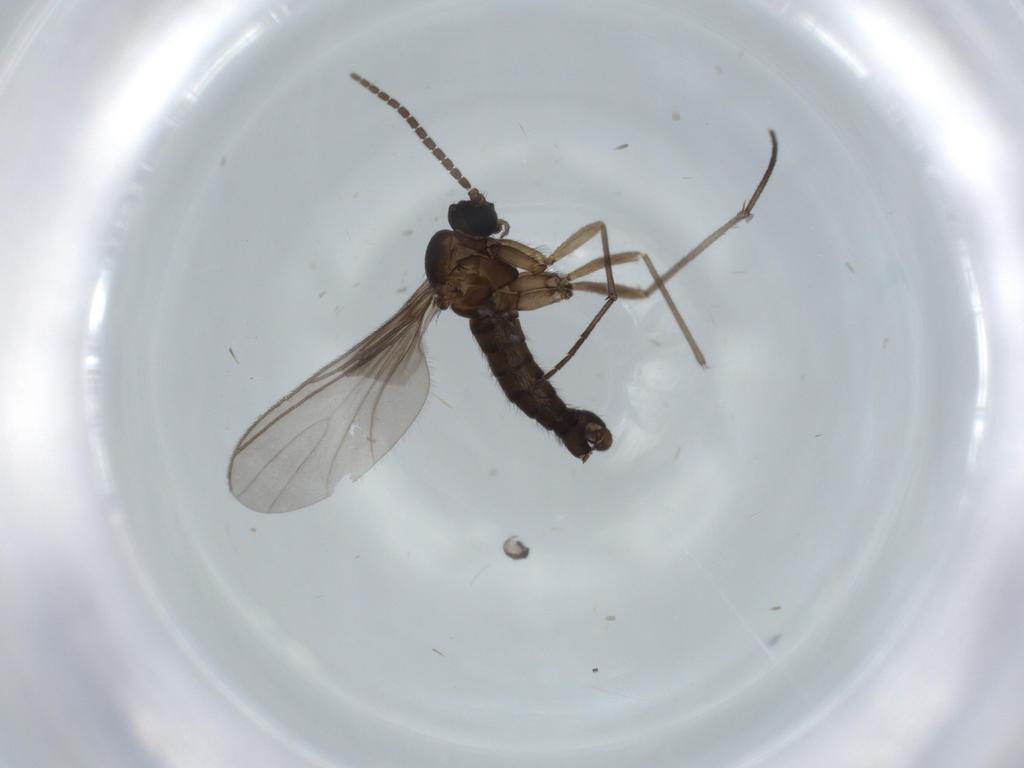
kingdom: Animalia
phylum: Arthropoda
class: Insecta
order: Diptera
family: Sciaridae
